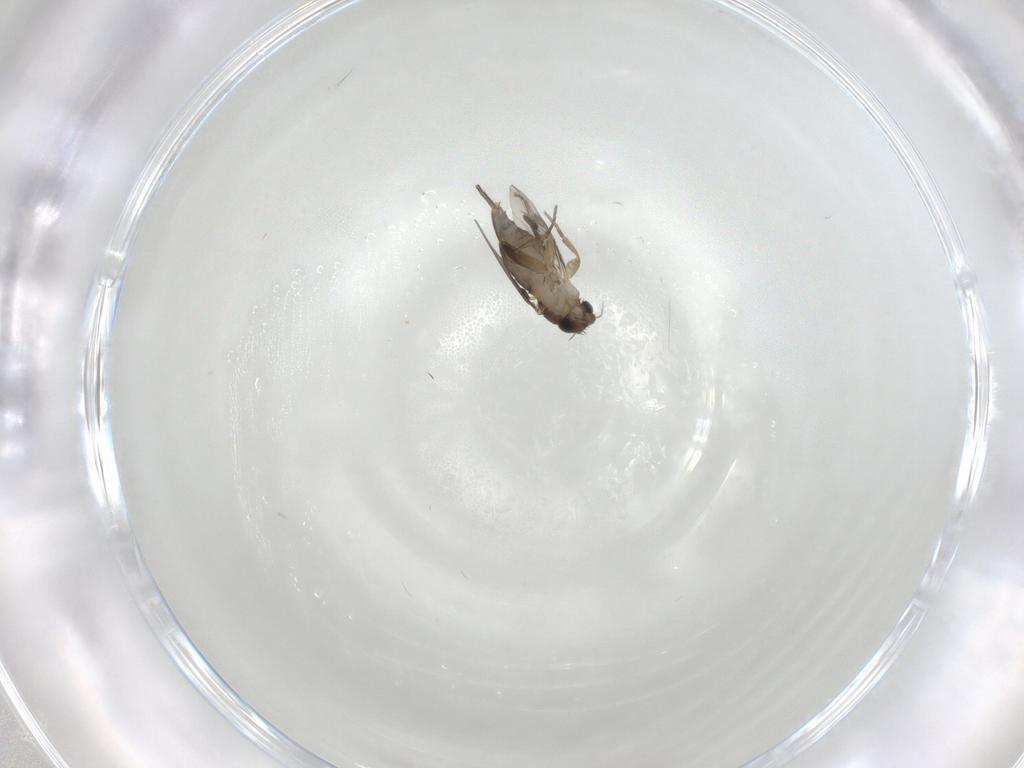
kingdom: Animalia
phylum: Arthropoda
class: Insecta
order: Diptera
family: Phoridae
